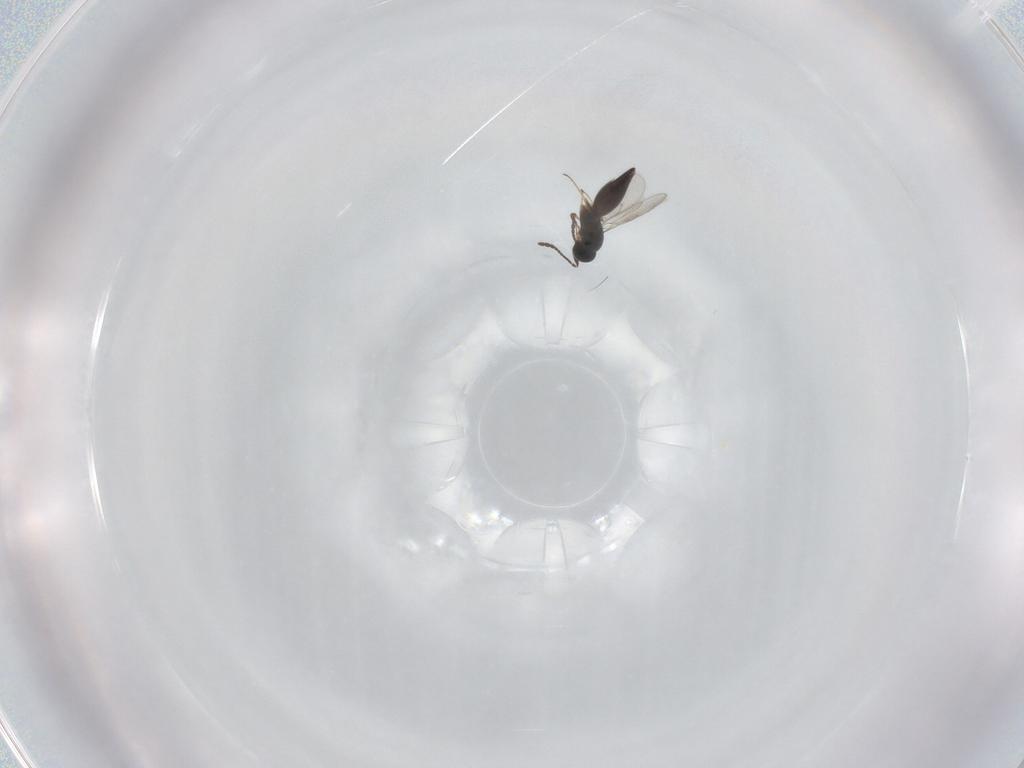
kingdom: Animalia
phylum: Arthropoda
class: Insecta
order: Hymenoptera
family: Scelionidae
